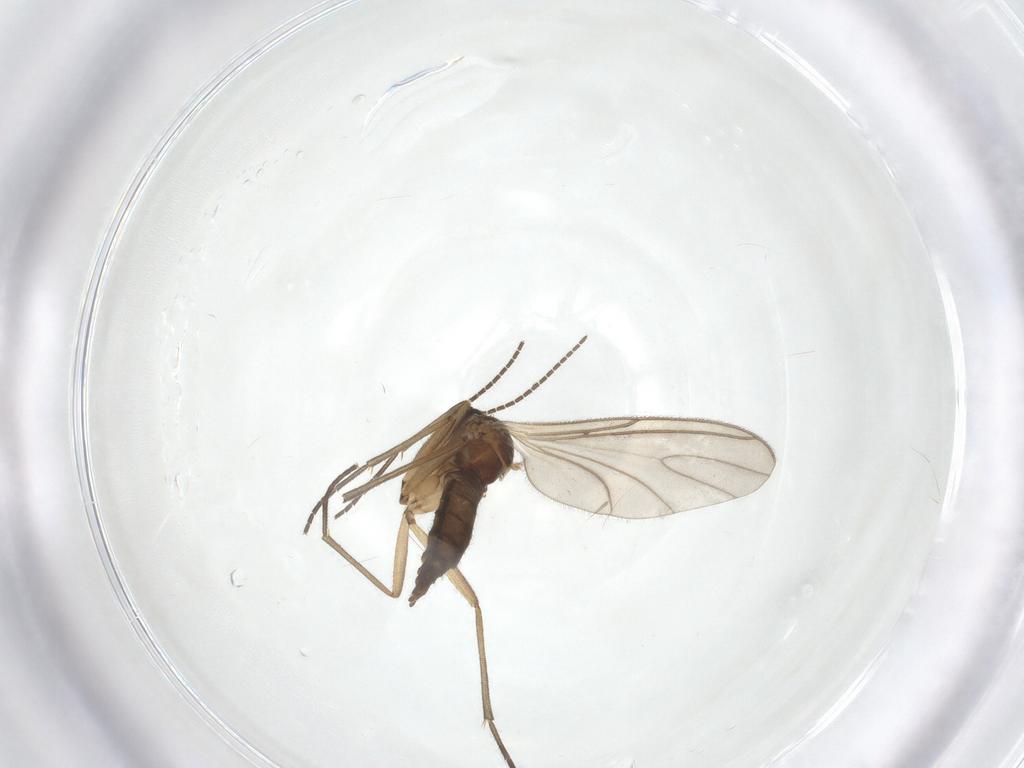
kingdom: Animalia
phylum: Arthropoda
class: Insecta
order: Diptera
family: Sciaridae
